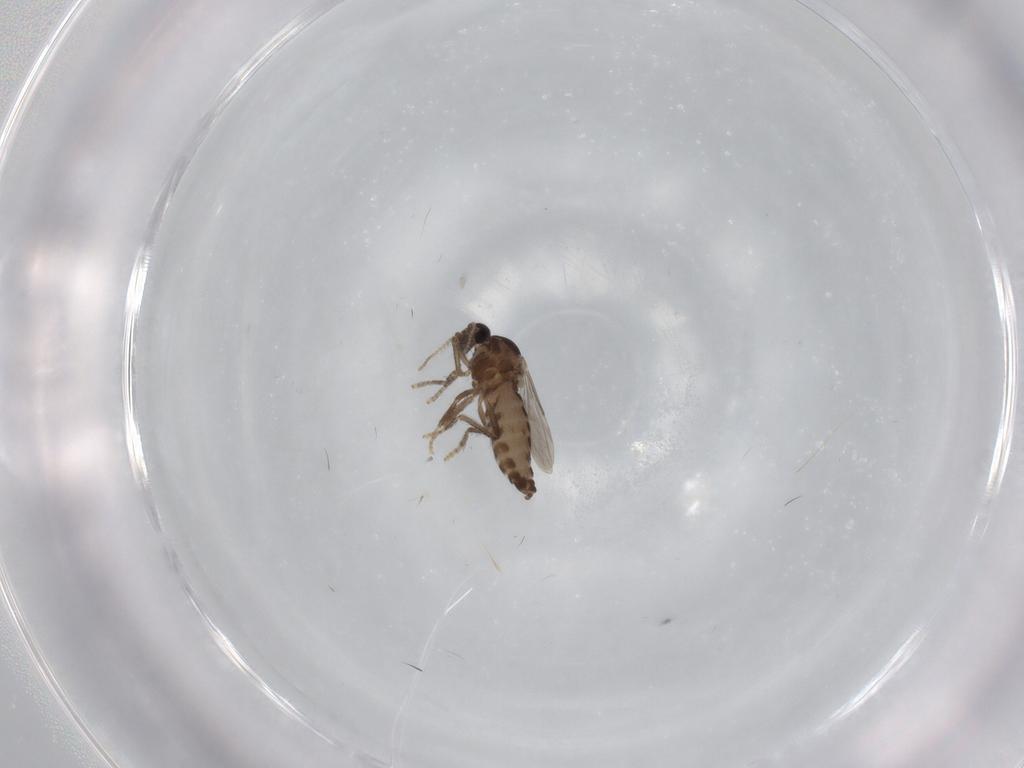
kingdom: Animalia
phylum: Arthropoda
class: Insecta
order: Diptera
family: Ceratopogonidae
